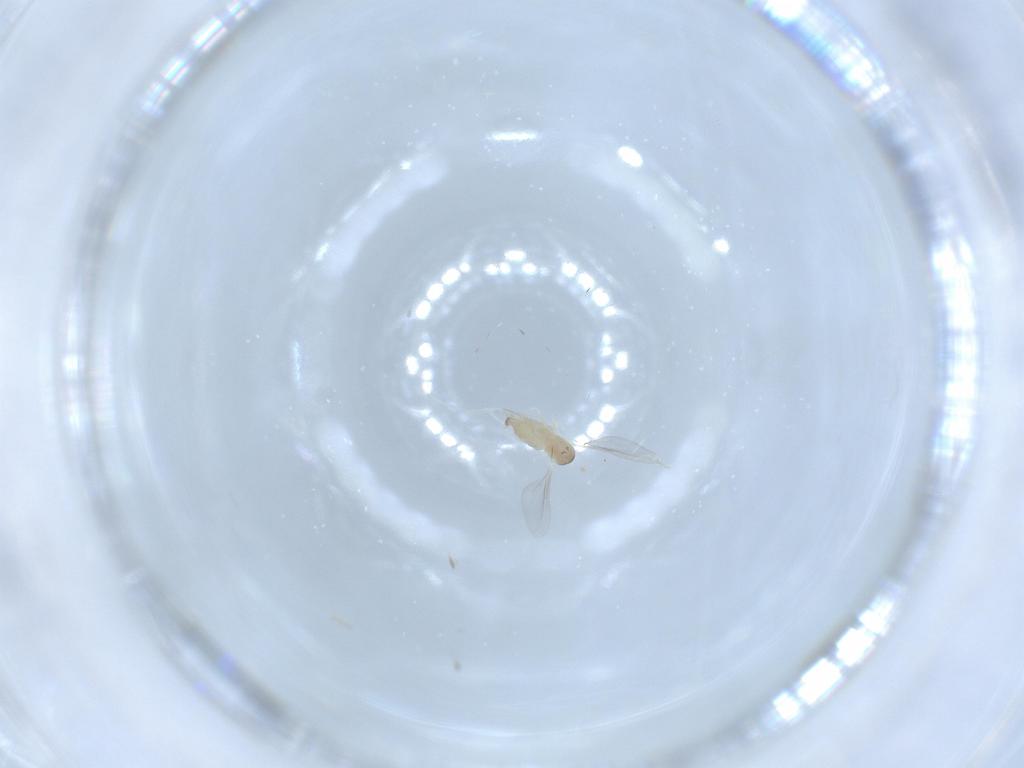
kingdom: Animalia
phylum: Arthropoda
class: Insecta
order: Diptera
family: Cecidomyiidae
